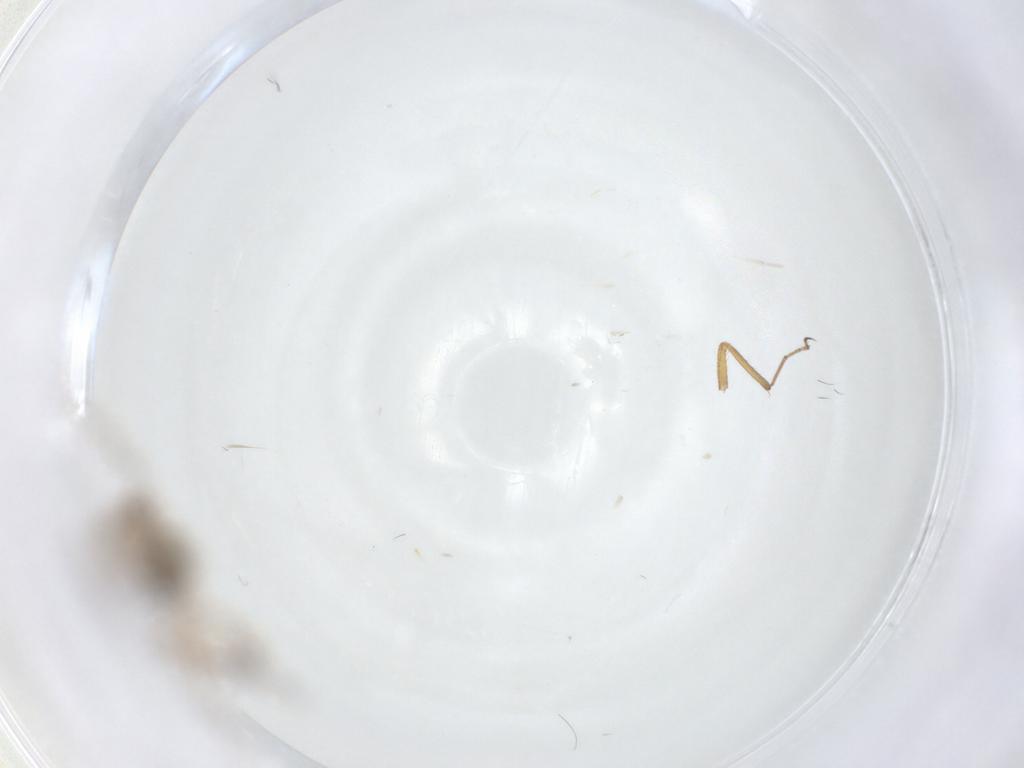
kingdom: Animalia
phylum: Arthropoda
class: Insecta
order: Diptera
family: Ceratopogonidae
